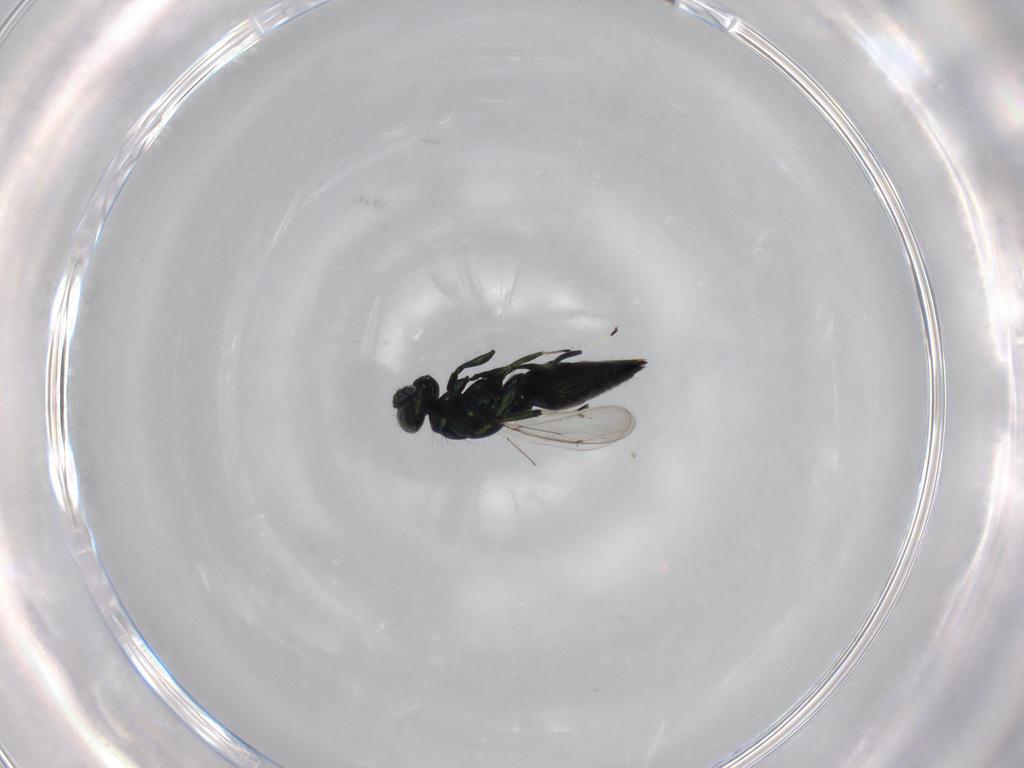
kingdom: Animalia
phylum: Arthropoda
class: Insecta
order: Hymenoptera
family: Eulophidae
